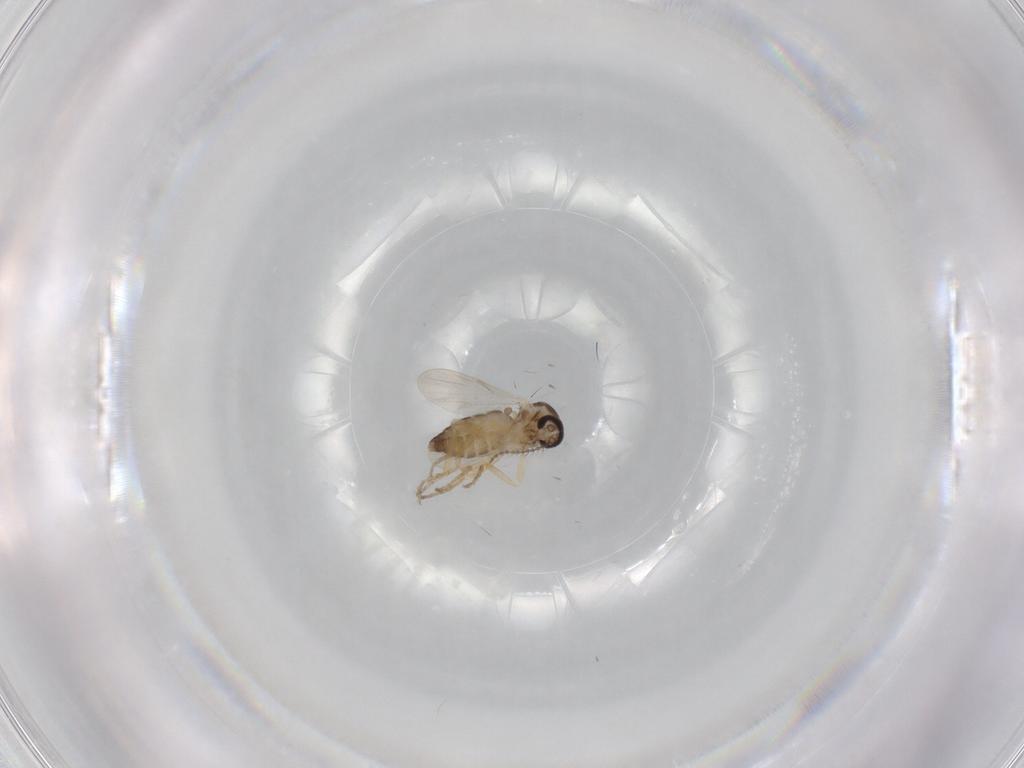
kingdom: Animalia
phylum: Arthropoda
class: Insecta
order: Diptera
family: Ceratopogonidae
